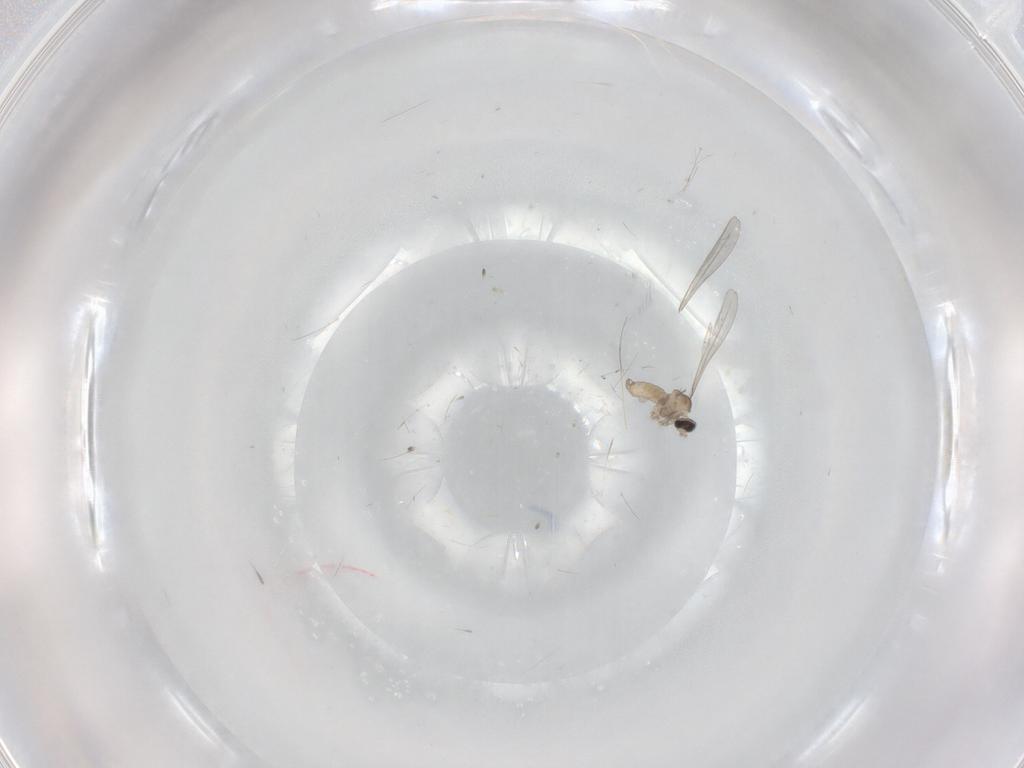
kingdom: Animalia
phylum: Arthropoda
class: Insecta
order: Diptera
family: Cecidomyiidae
